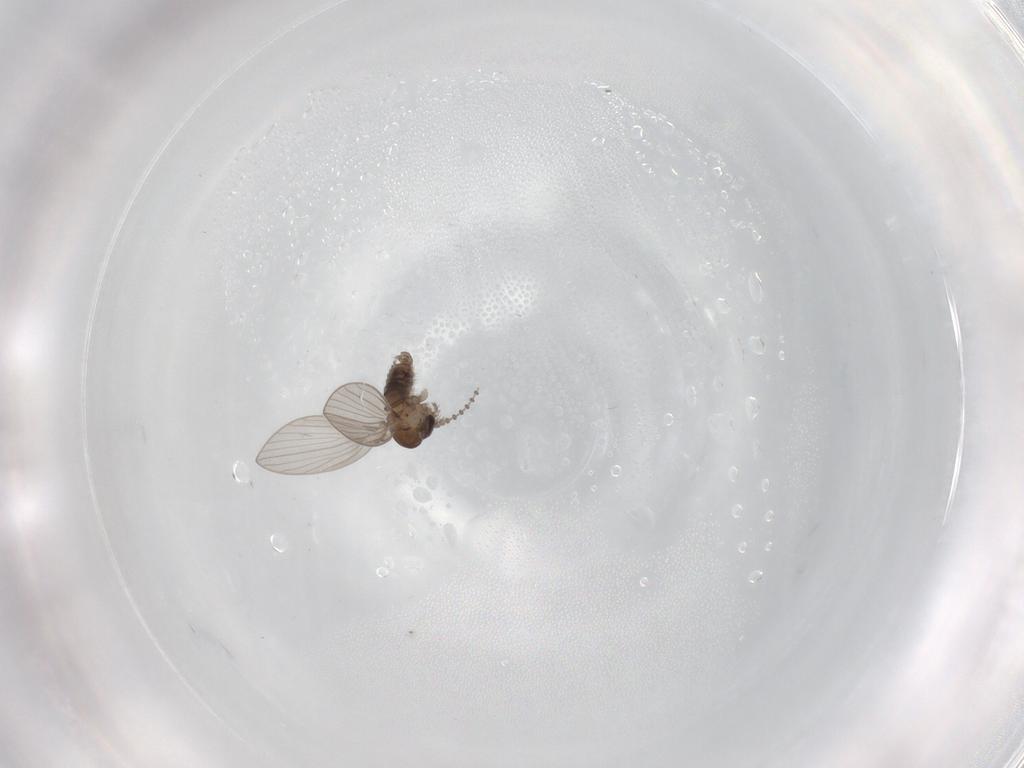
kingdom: Animalia
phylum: Arthropoda
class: Insecta
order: Diptera
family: Psychodidae
